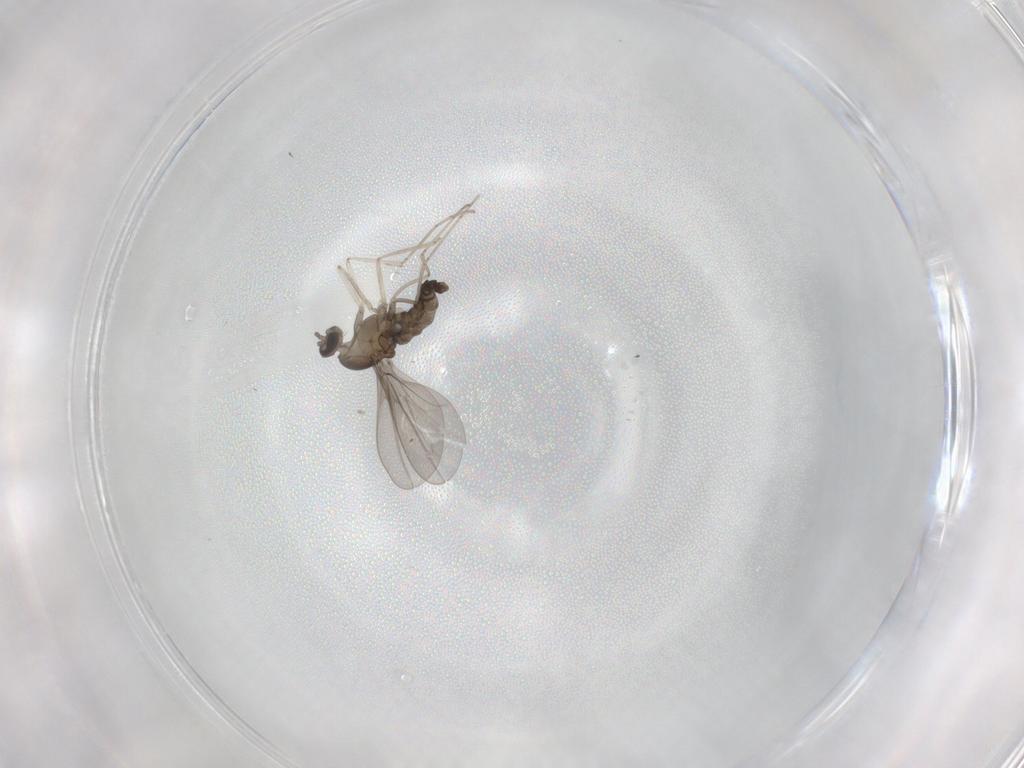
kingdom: Animalia
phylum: Arthropoda
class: Insecta
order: Diptera
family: Cecidomyiidae
